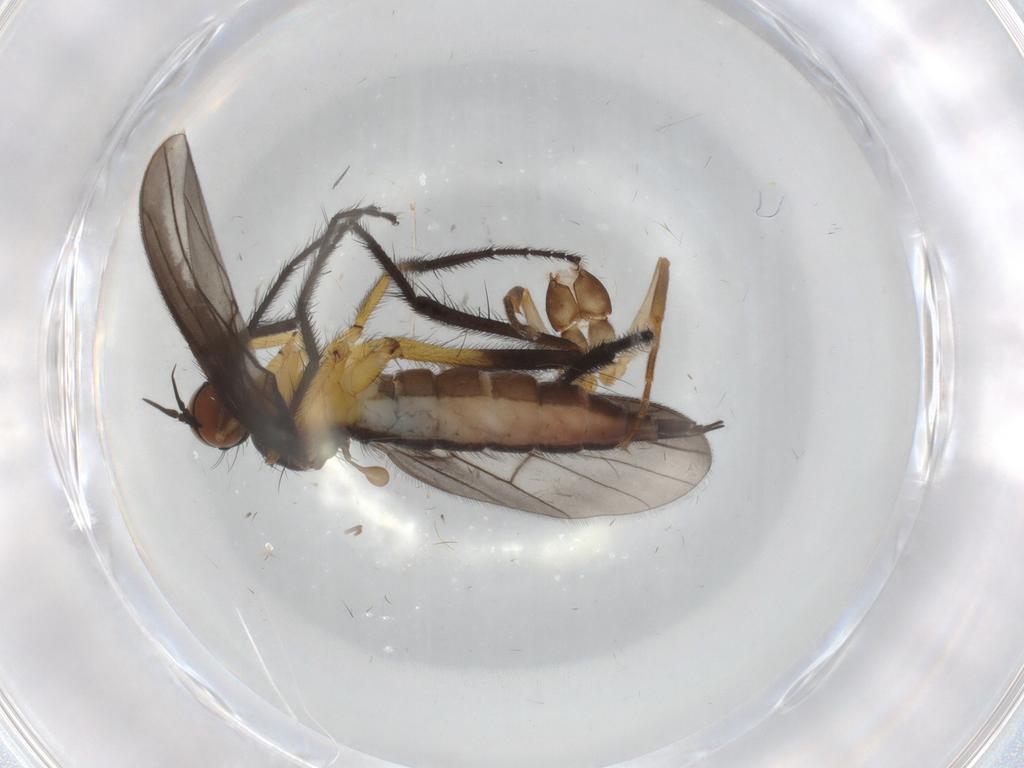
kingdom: Animalia
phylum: Arthropoda
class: Insecta
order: Diptera
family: Empididae
